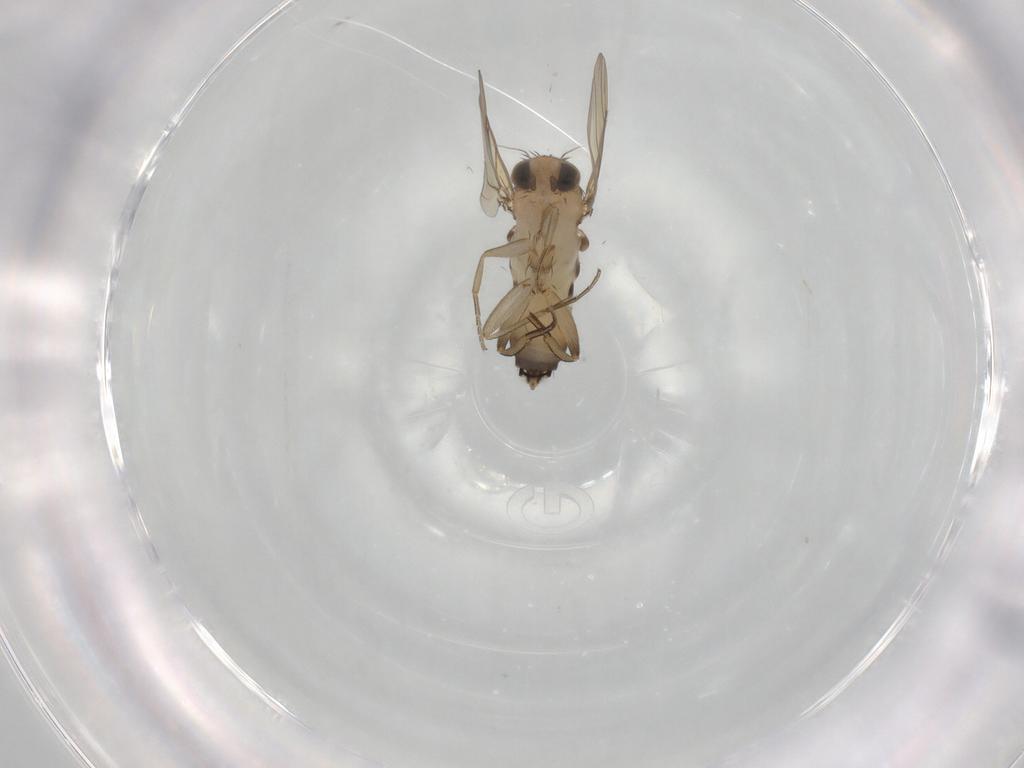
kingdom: Animalia
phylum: Arthropoda
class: Insecta
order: Diptera
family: Phoridae
